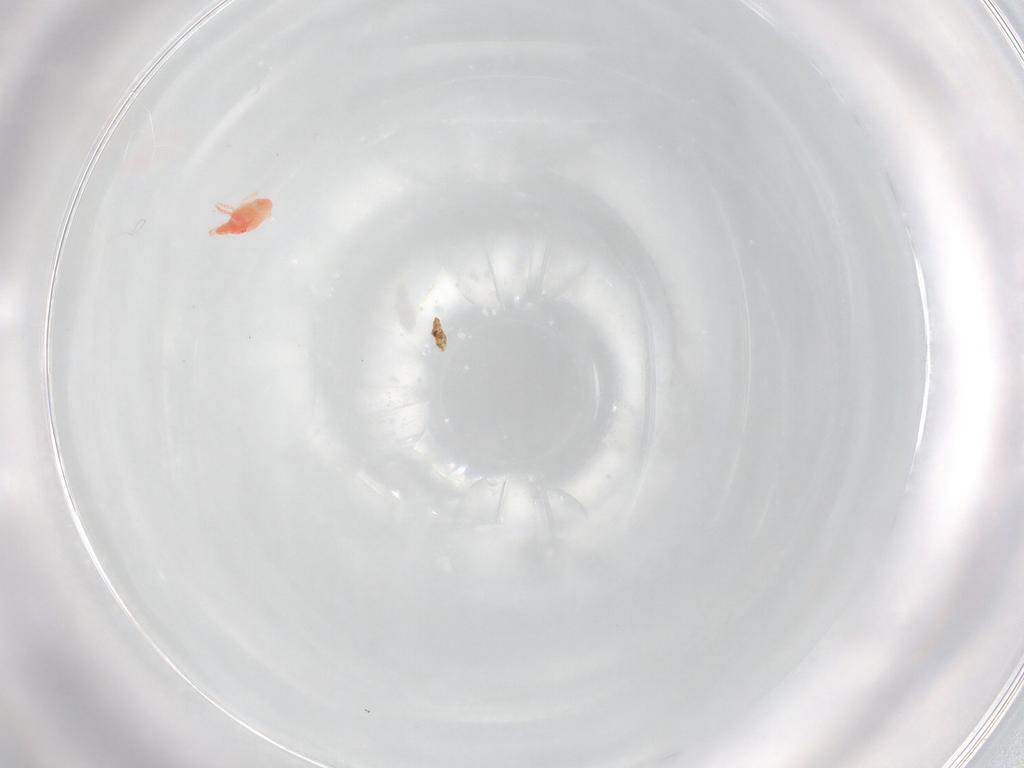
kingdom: Animalia
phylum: Arthropoda
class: Arachnida
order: Trombidiformes
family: Bdellidae
